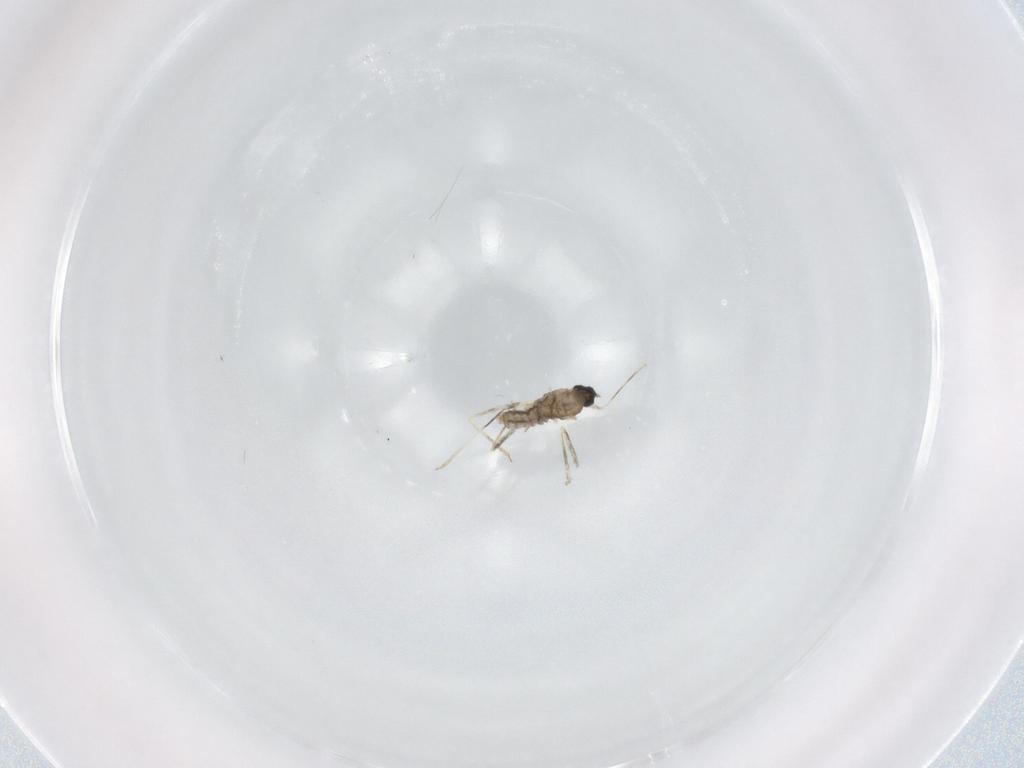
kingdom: Animalia
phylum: Arthropoda
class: Insecta
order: Diptera
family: Cecidomyiidae
